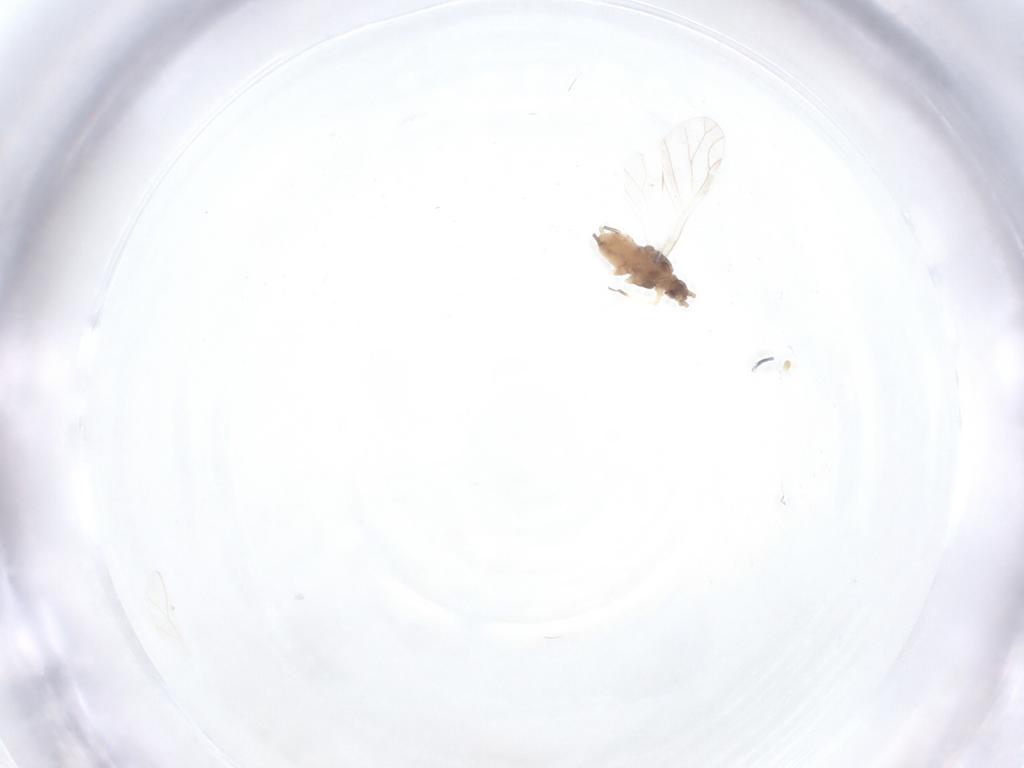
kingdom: Animalia
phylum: Arthropoda
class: Insecta
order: Hemiptera
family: Aphididae
